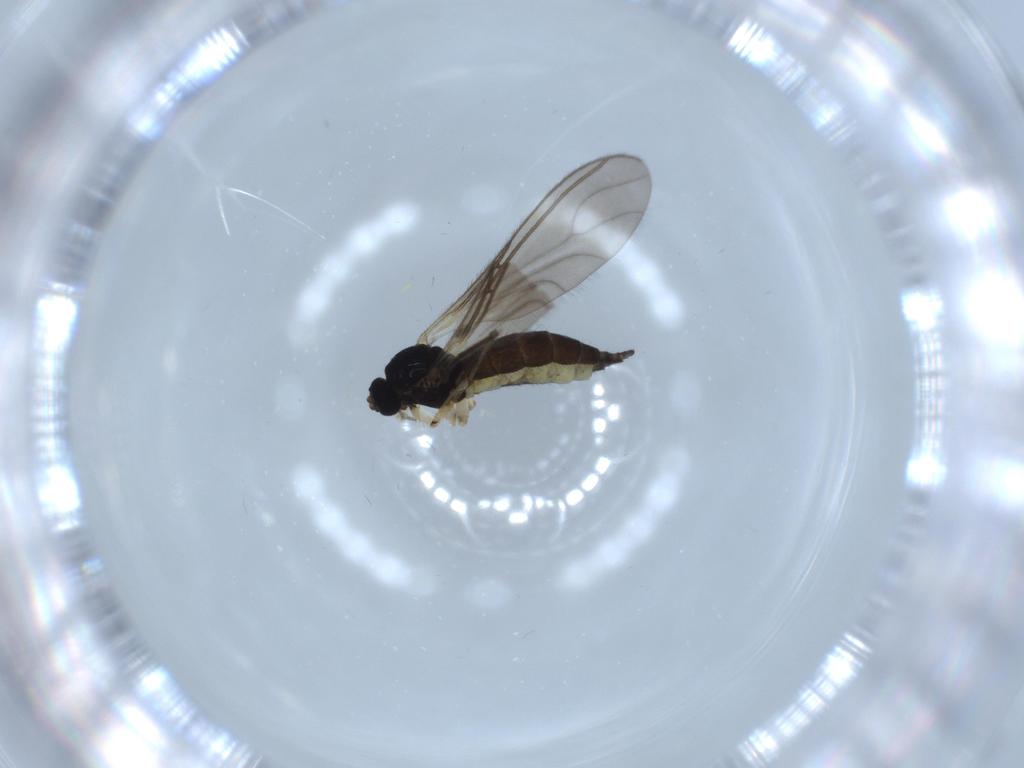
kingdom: Animalia
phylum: Arthropoda
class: Insecta
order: Diptera
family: Sciaridae
